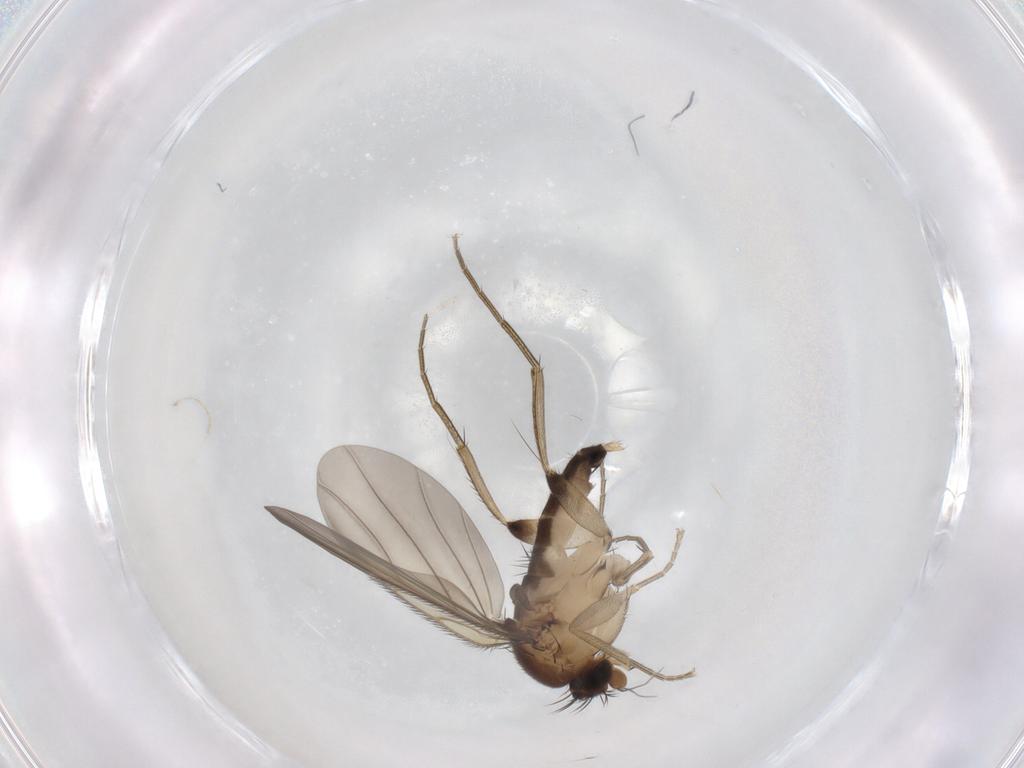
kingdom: Animalia
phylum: Arthropoda
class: Insecta
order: Diptera
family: Phoridae
